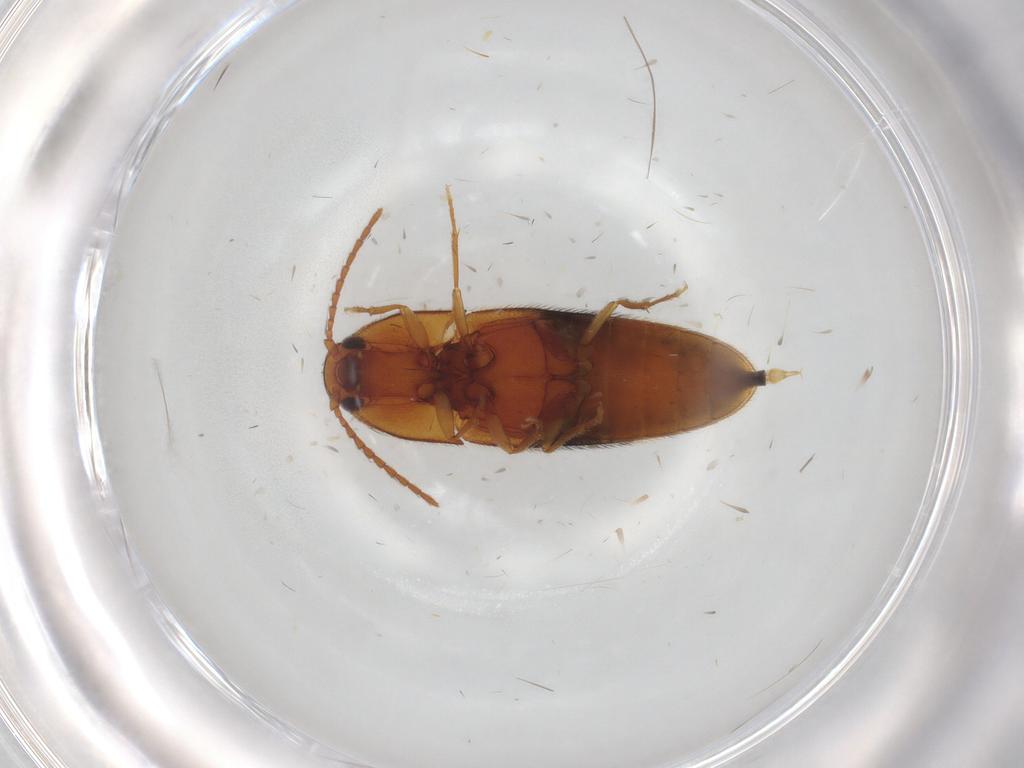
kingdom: Animalia
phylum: Arthropoda
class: Insecta
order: Coleoptera
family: Elateridae
